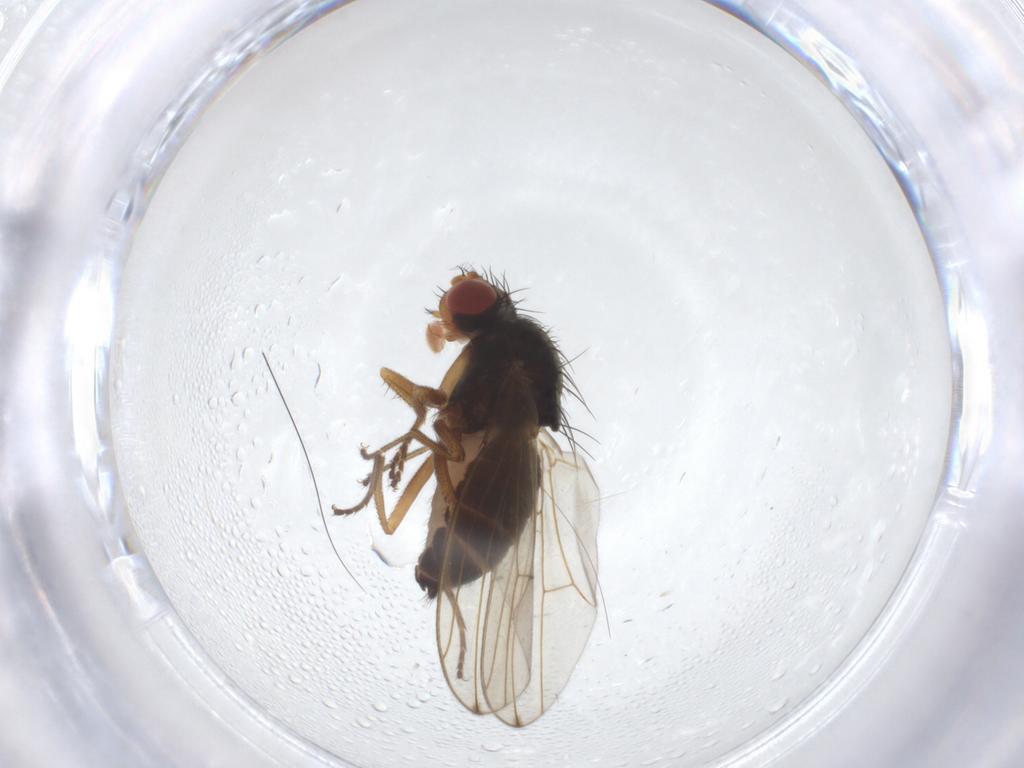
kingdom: Animalia
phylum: Arthropoda
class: Insecta
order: Diptera
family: Drosophilidae
